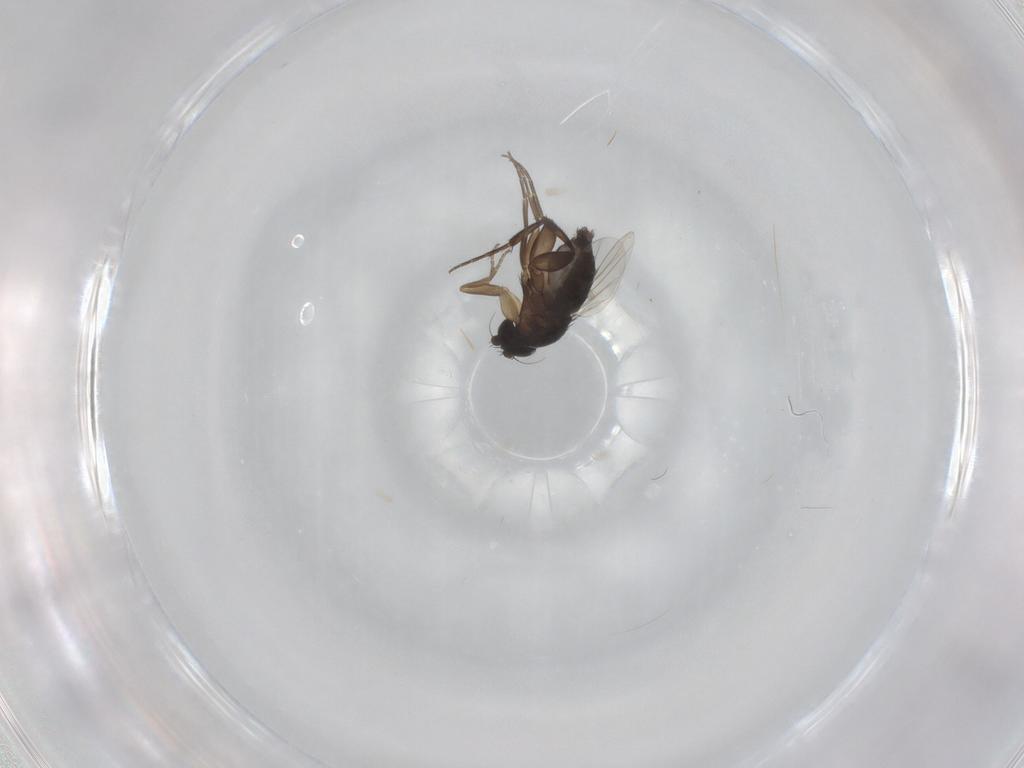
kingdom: Animalia
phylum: Arthropoda
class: Insecta
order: Diptera
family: Phoridae
